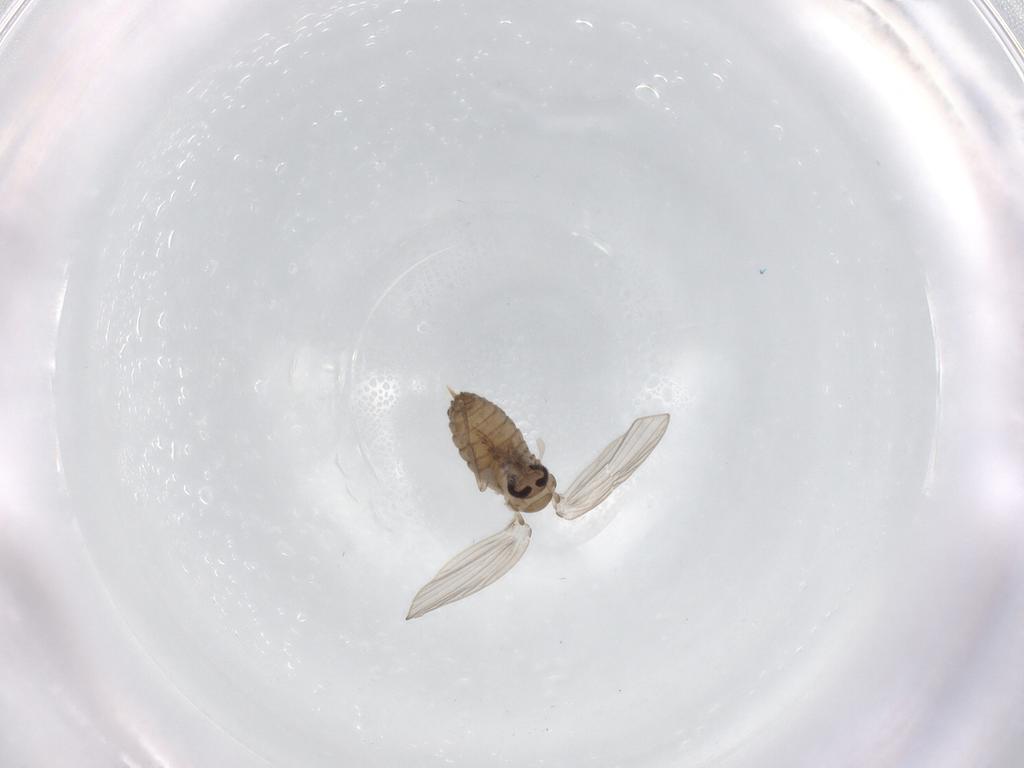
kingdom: Animalia
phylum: Arthropoda
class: Insecta
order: Diptera
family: Psychodidae
